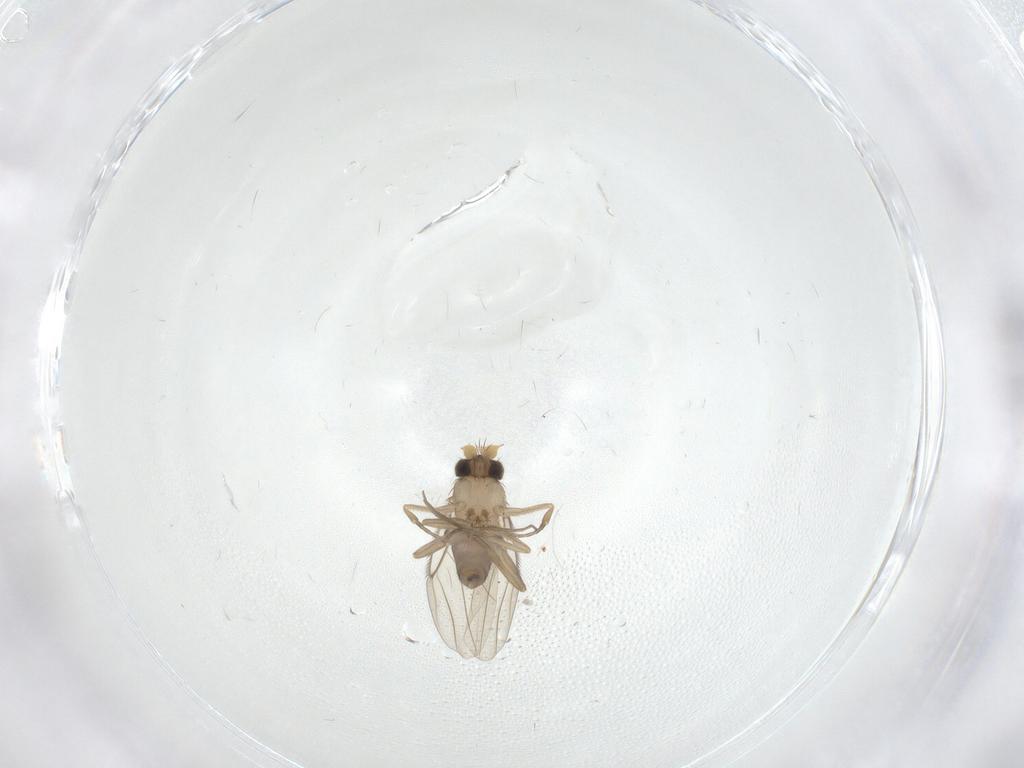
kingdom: Animalia
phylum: Arthropoda
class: Insecta
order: Diptera
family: Phoridae
